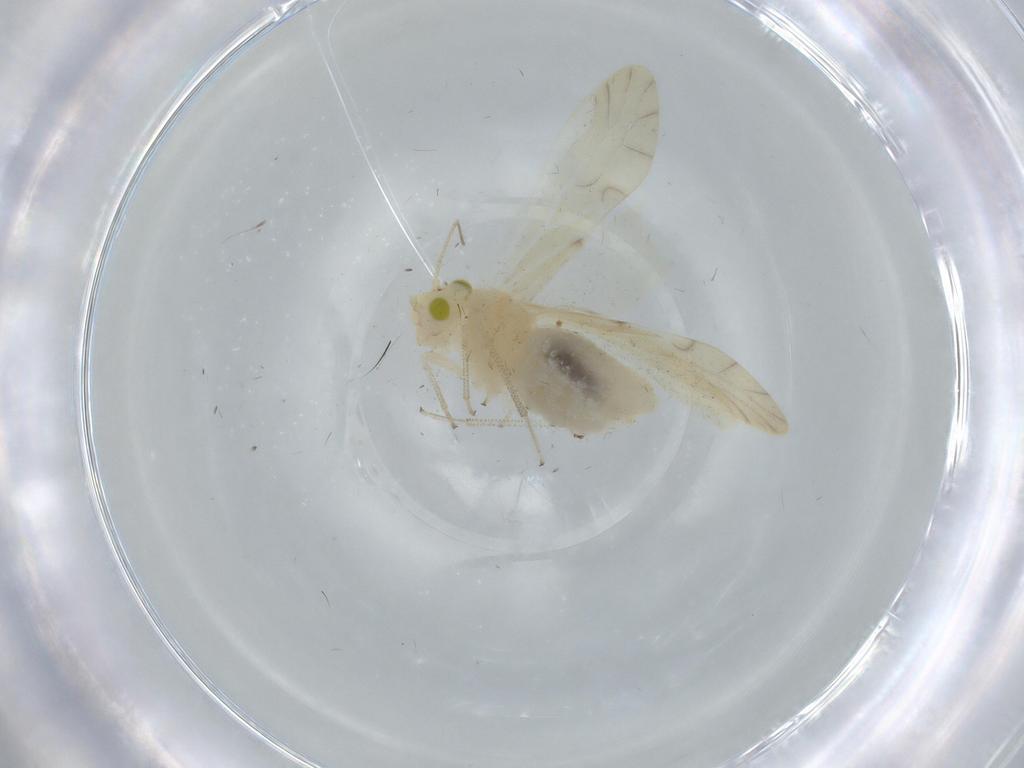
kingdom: Animalia
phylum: Arthropoda
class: Insecta
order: Psocodea
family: Caeciliusidae
